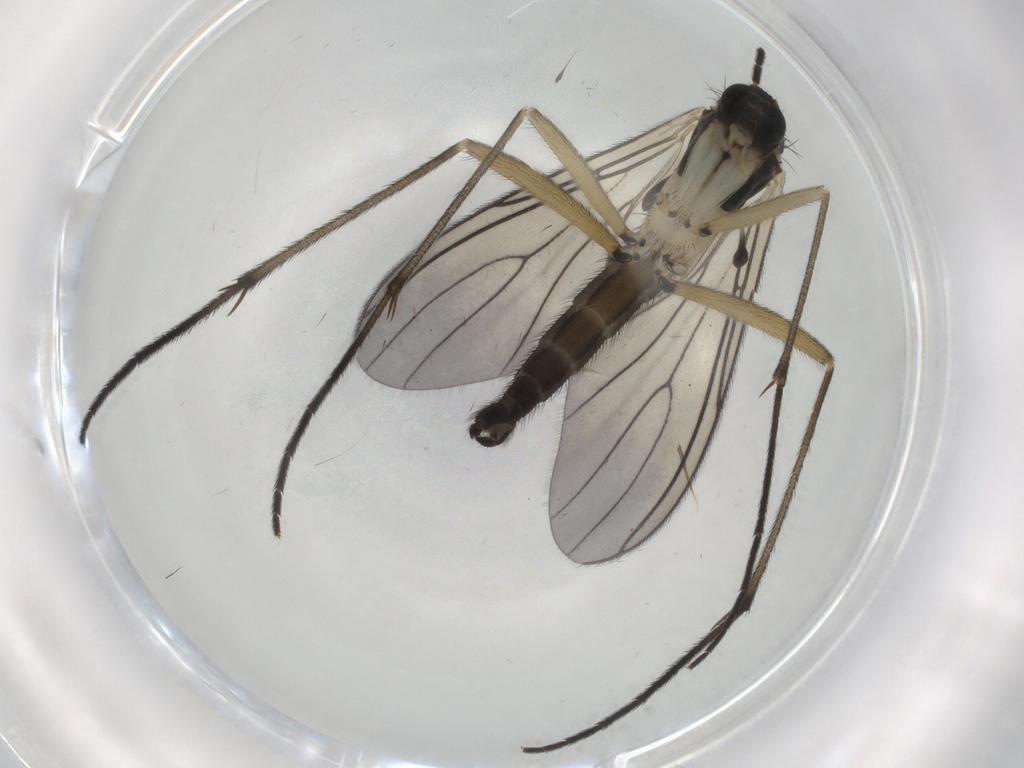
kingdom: Animalia
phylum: Arthropoda
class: Insecta
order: Diptera
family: Sciaridae
